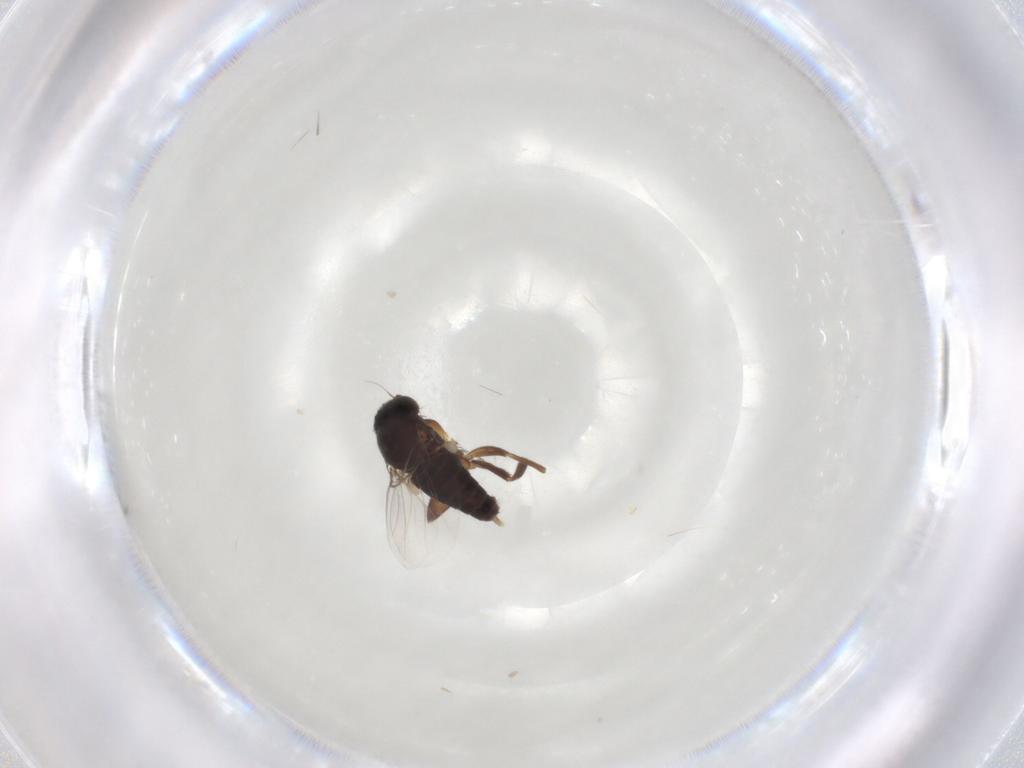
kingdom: Animalia
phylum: Arthropoda
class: Insecta
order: Diptera
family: Phoridae
